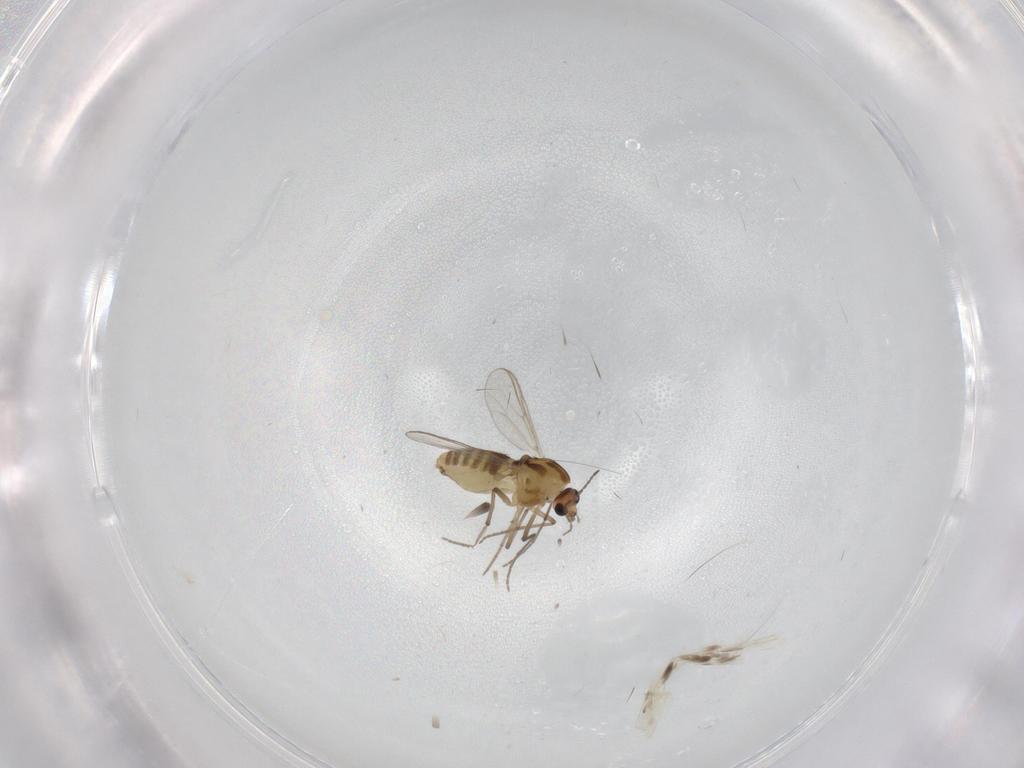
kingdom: Animalia
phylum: Arthropoda
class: Insecta
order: Diptera
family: Chironomidae
